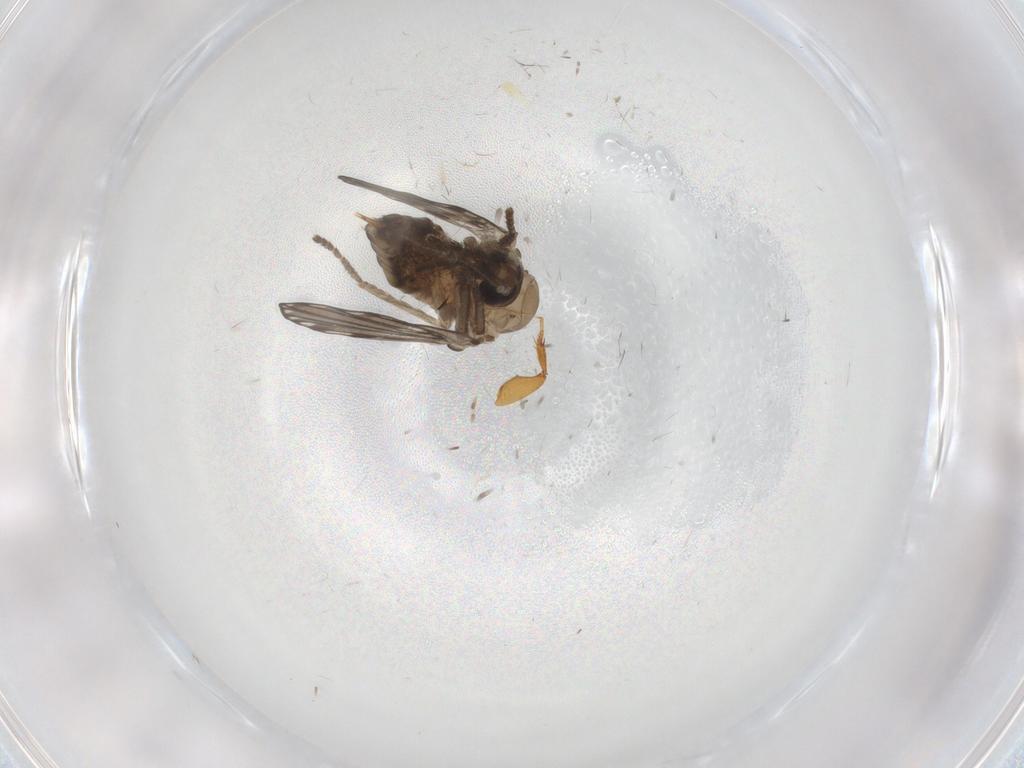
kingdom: Animalia
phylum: Arthropoda
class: Insecta
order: Diptera
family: Psychodidae
